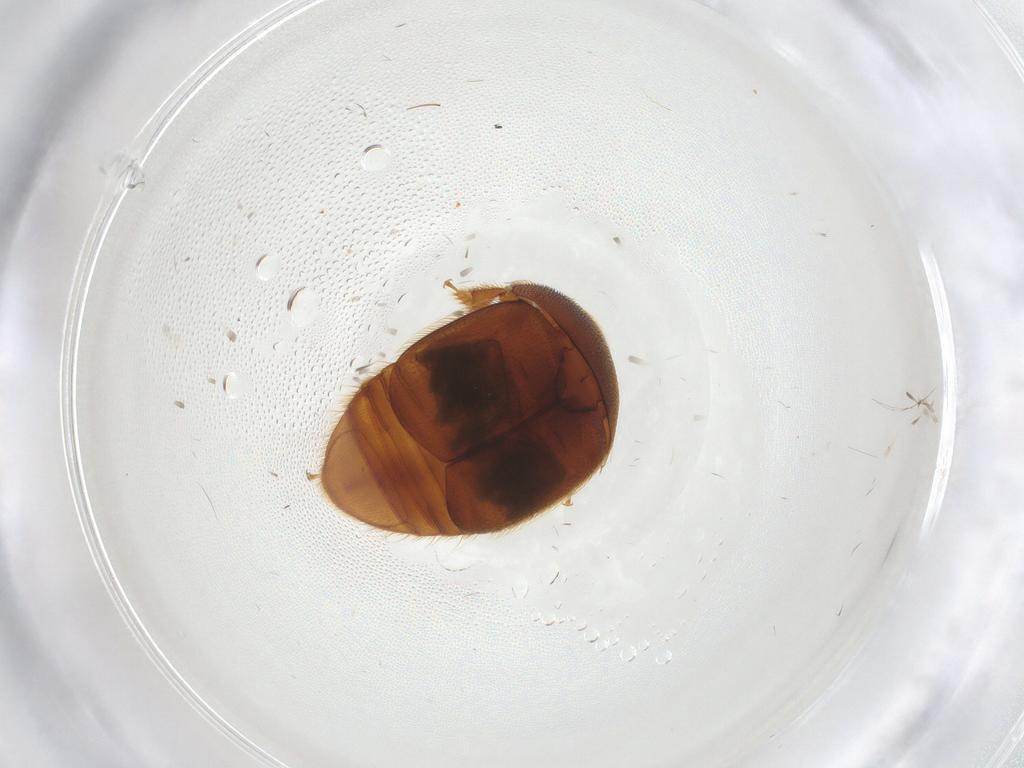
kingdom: Animalia
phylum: Arthropoda
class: Insecta
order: Coleoptera
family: Nitidulidae
